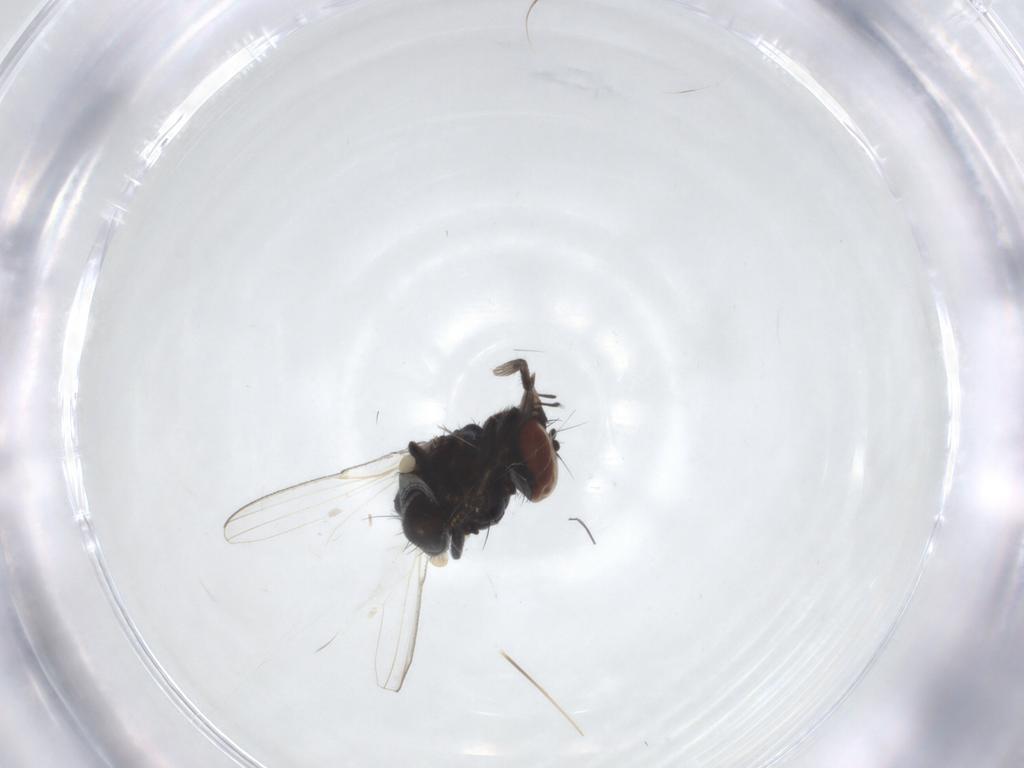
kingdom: Animalia
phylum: Arthropoda
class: Insecta
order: Diptera
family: Milichiidae
